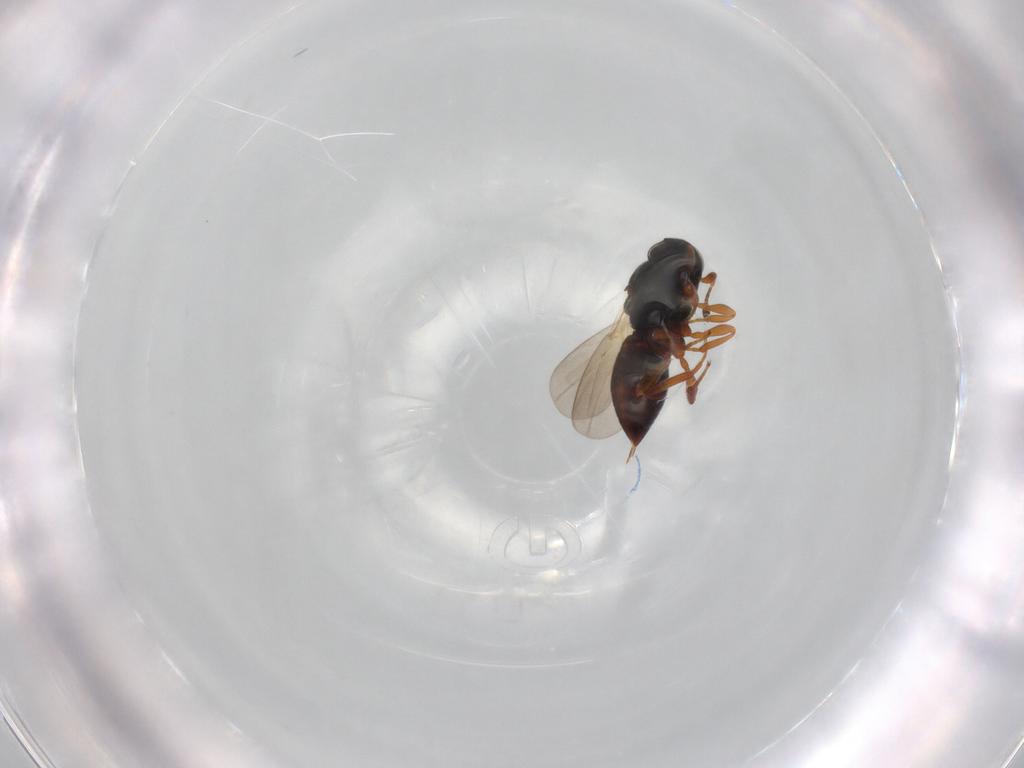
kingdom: Animalia
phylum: Arthropoda
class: Insecta
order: Hymenoptera
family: Platygastridae
